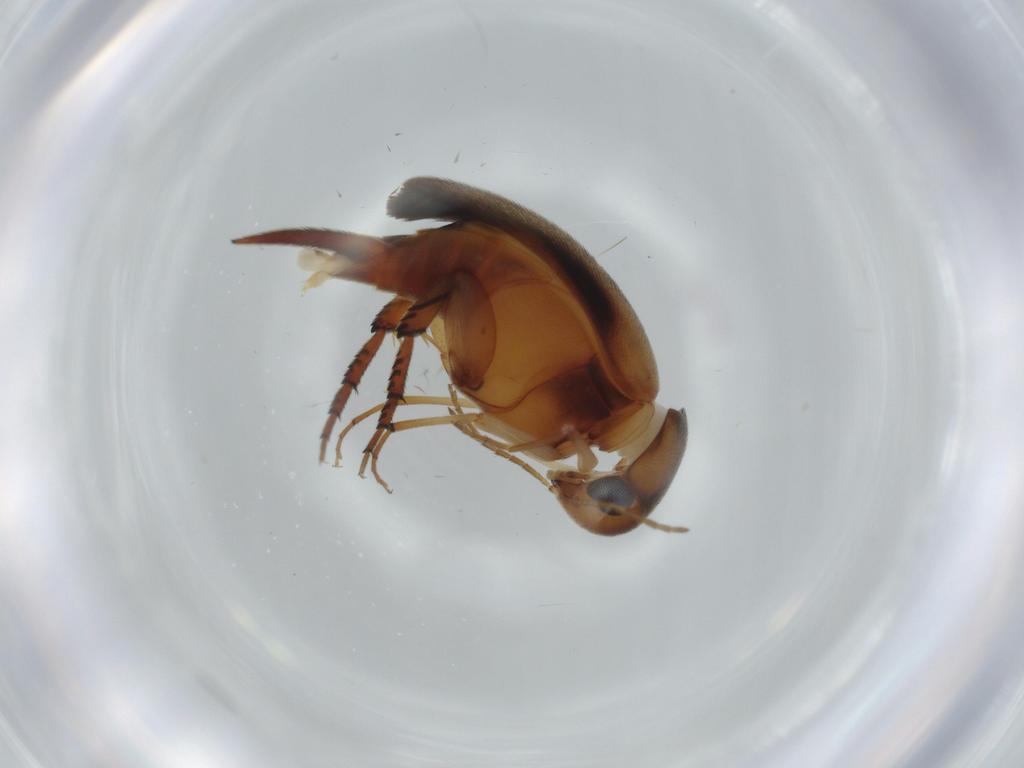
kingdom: Animalia
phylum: Arthropoda
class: Insecta
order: Coleoptera
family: Mordellidae
